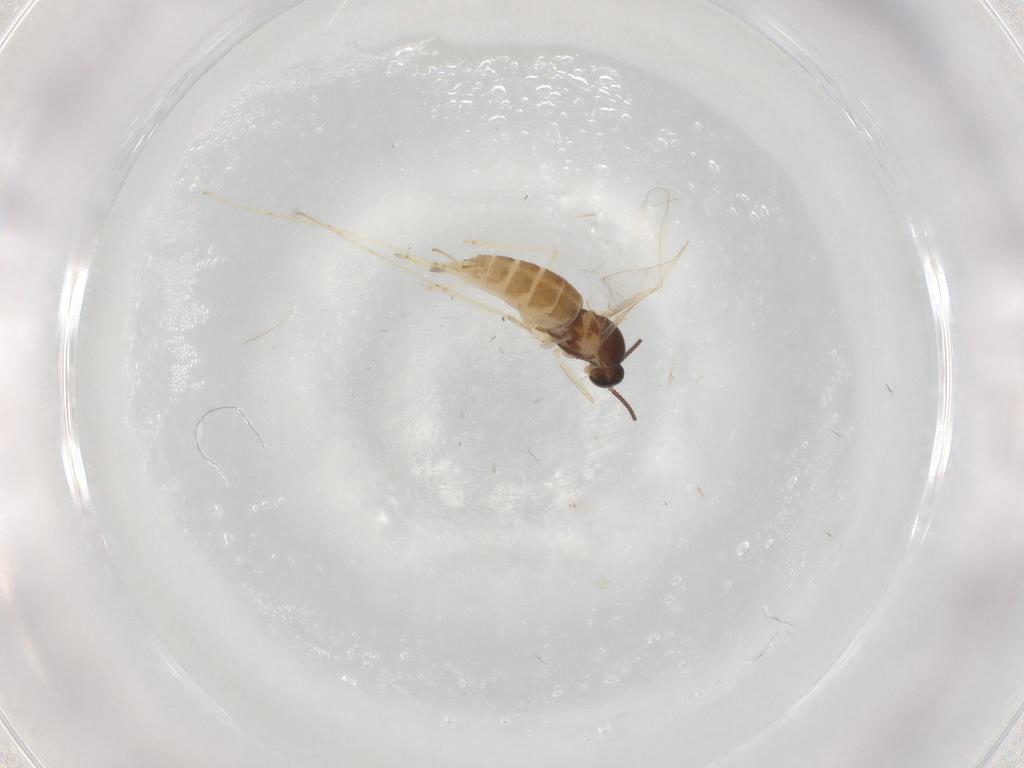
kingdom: Animalia
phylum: Arthropoda
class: Insecta
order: Diptera
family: Cecidomyiidae
